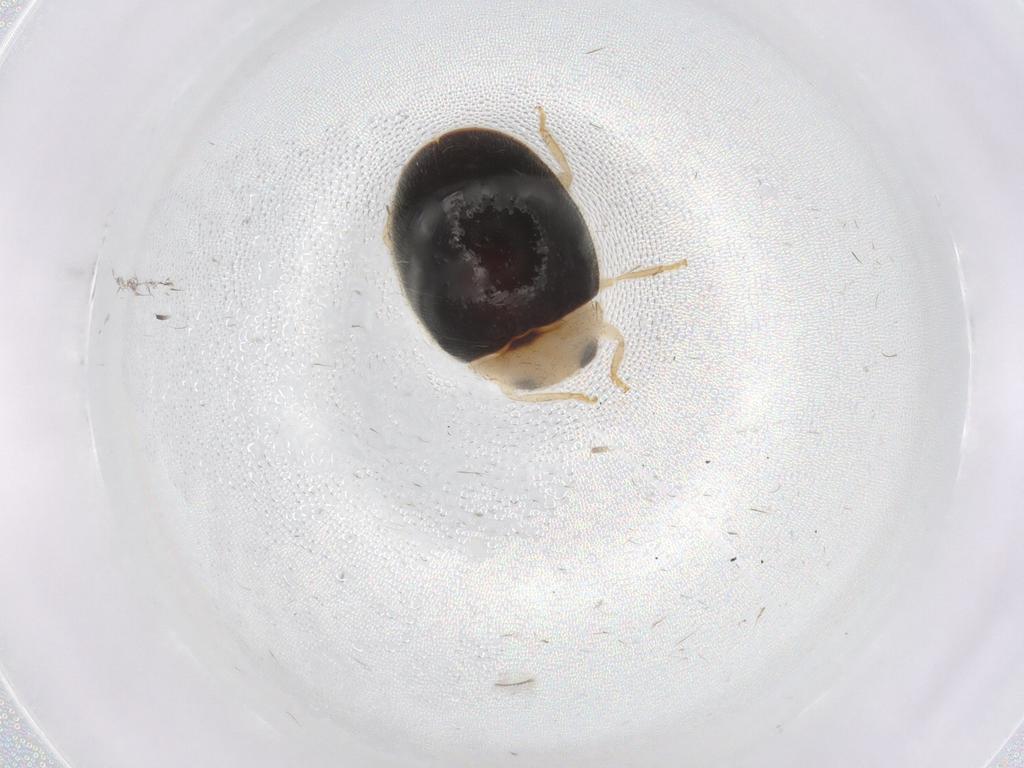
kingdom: Animalia
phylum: Arthropoda
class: Insecta
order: Coleoptera
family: Coccinellidae
